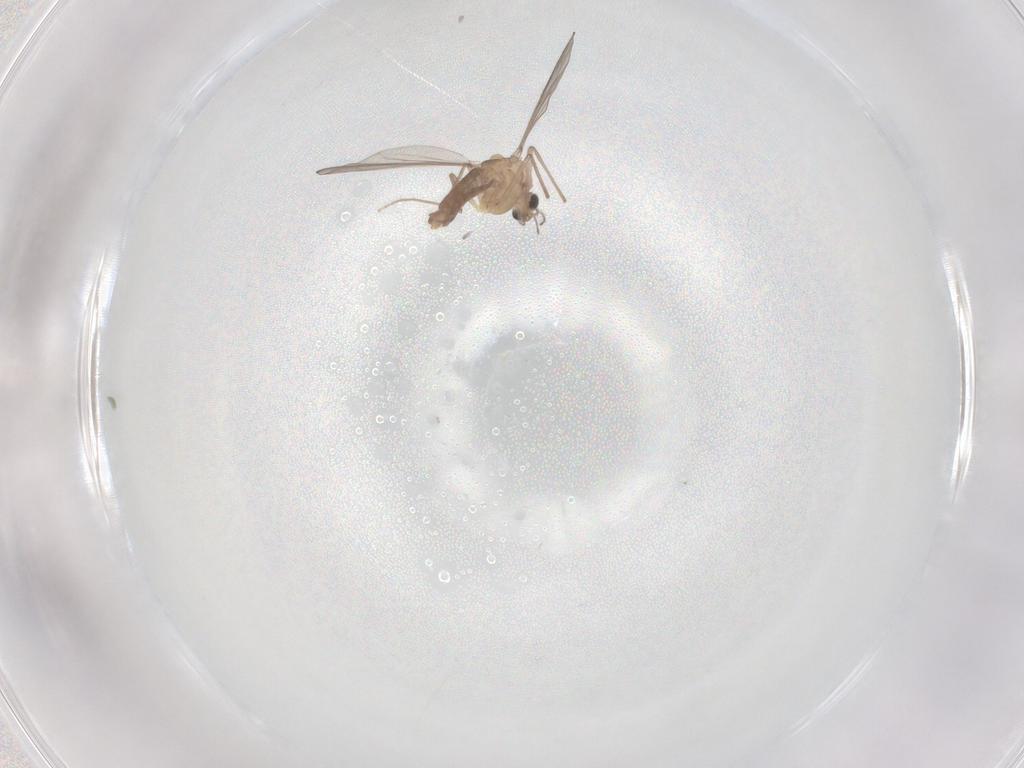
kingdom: Animalia
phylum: Arthropoda
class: Insecta
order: Diptera
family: Chironomidae
